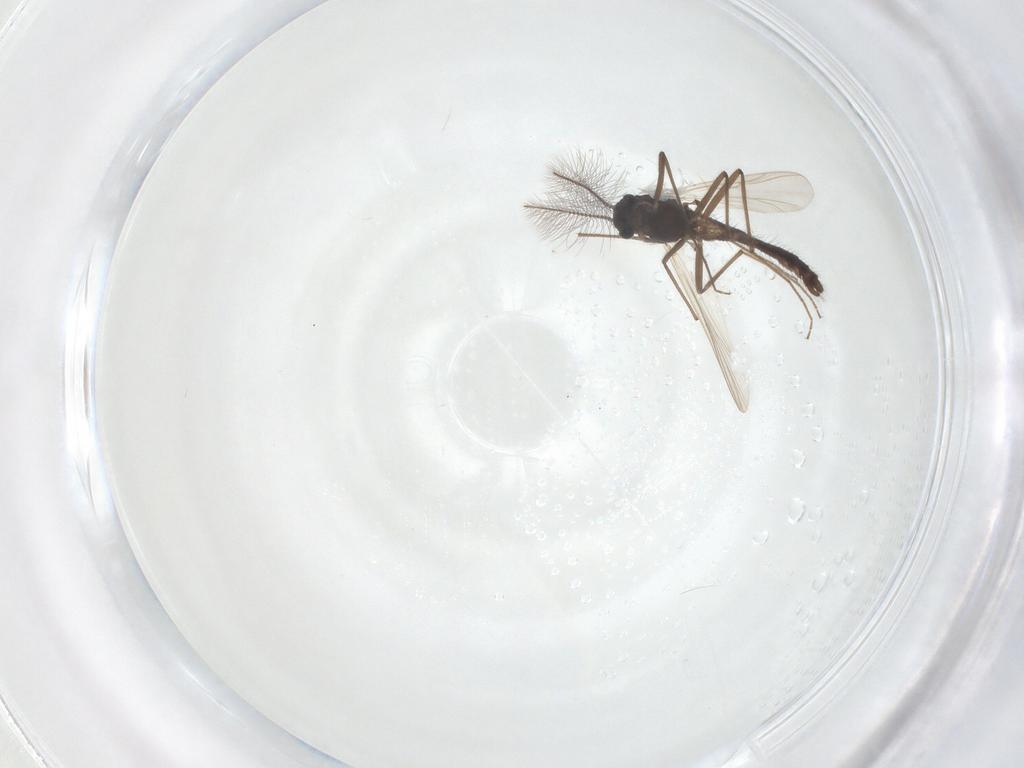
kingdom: Animalia
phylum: Arthropoda
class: Insecta
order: Diptera
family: Chironomidae
